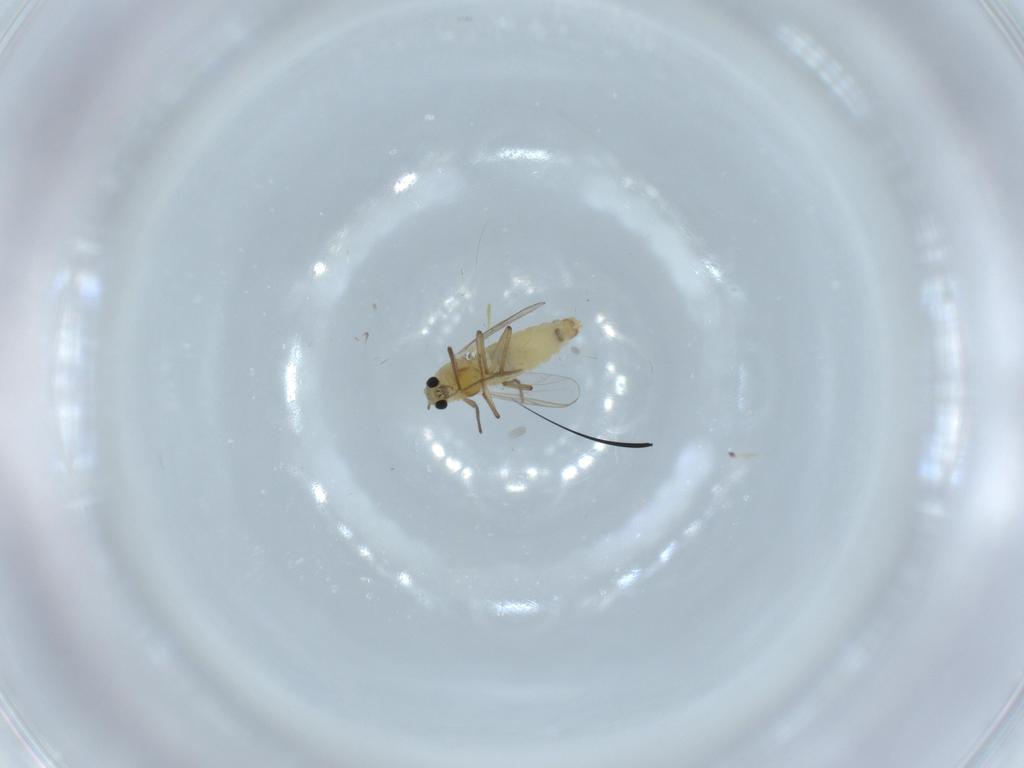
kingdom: Animalia
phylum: Arthropoda
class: Insecta
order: Diptera
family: Chironomidae
